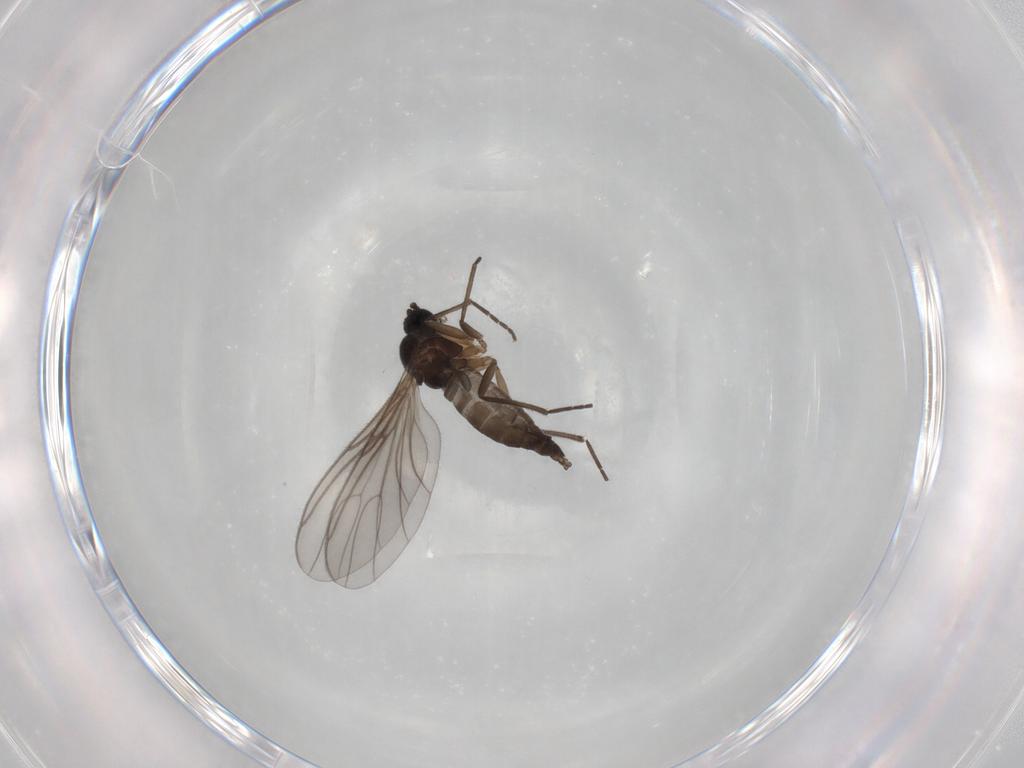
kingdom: Animalia
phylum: Arthropoda
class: Insecta
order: Diptera
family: Sciaridae
